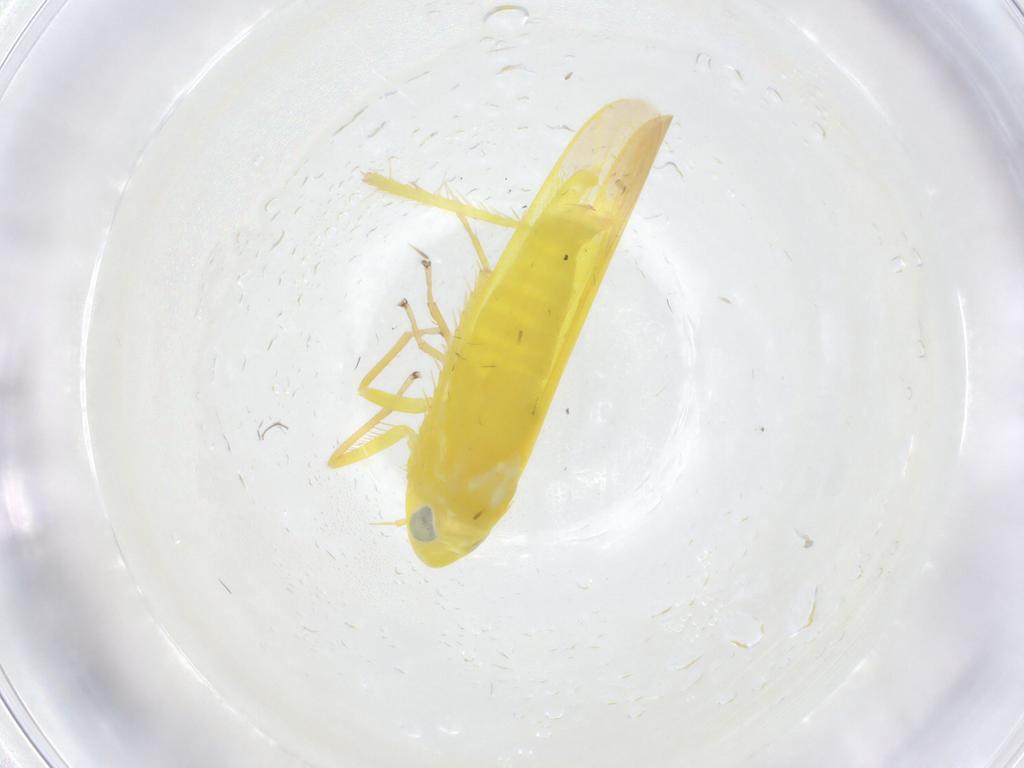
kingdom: Animalia
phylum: Arthropoda
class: Insecta
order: Hemiptera
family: Cicadellidae
